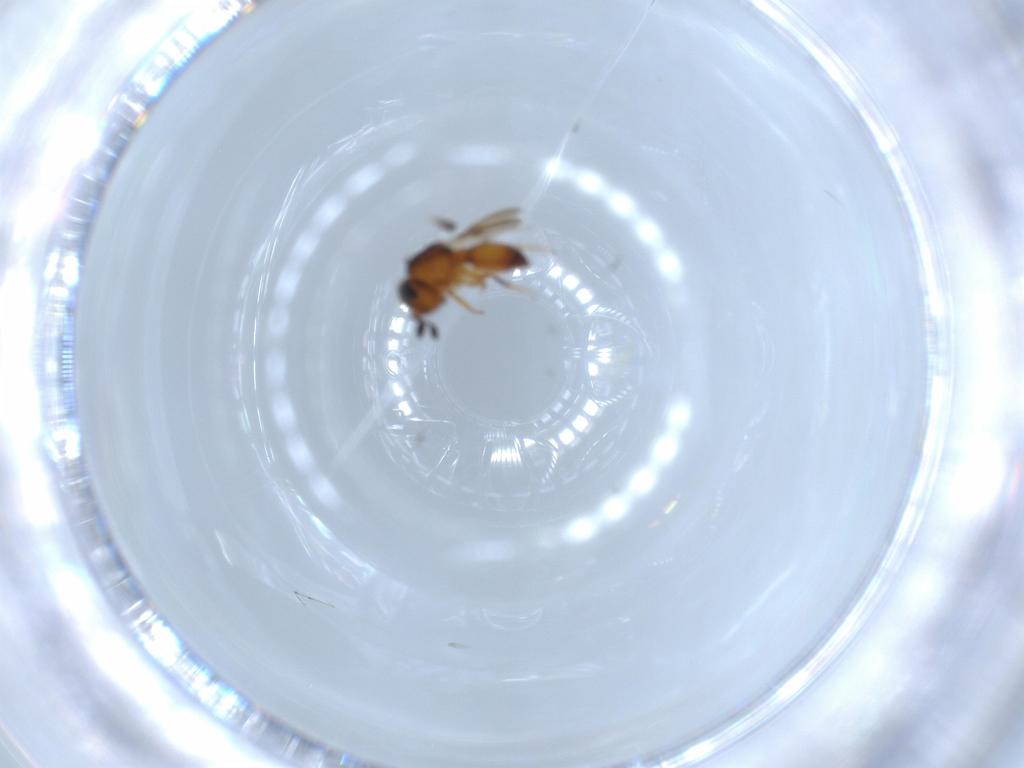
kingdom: Animalia
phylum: Arthropoda
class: Insecta
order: Hymenoptera
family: Scelionidae
